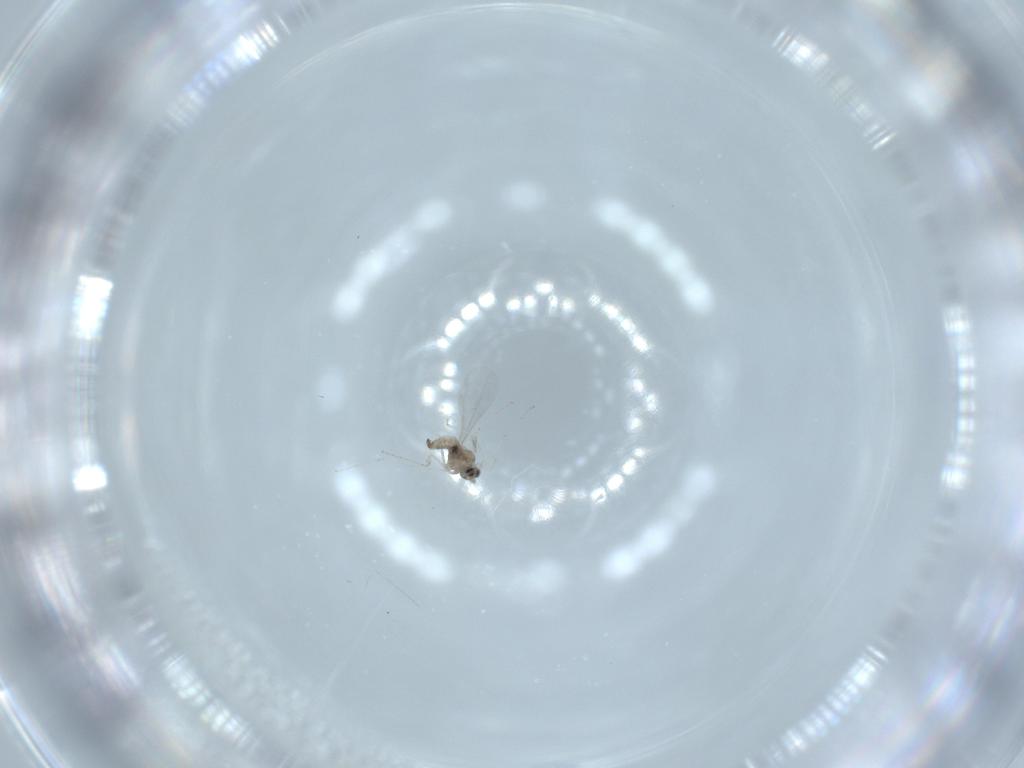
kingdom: Animalia
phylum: Arthropoda
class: Insecta
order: Diptera
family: Cecidomyiidae
